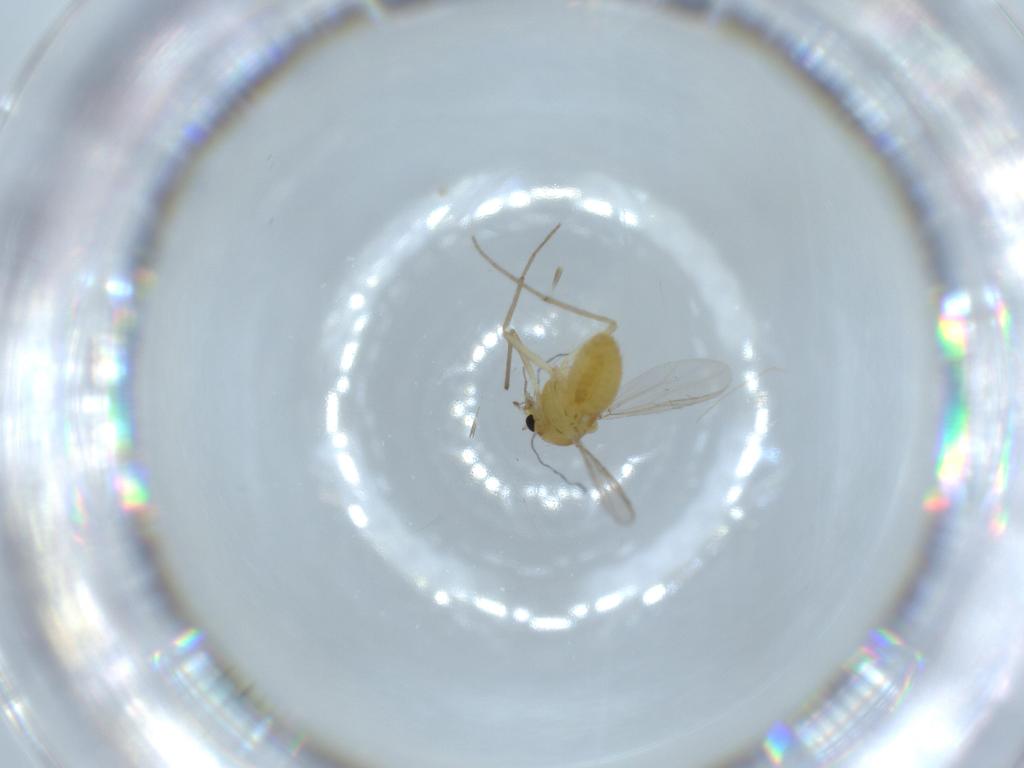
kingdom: Animalia
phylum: Arthropoda
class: Insecta
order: Diptera
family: Chironomidae
